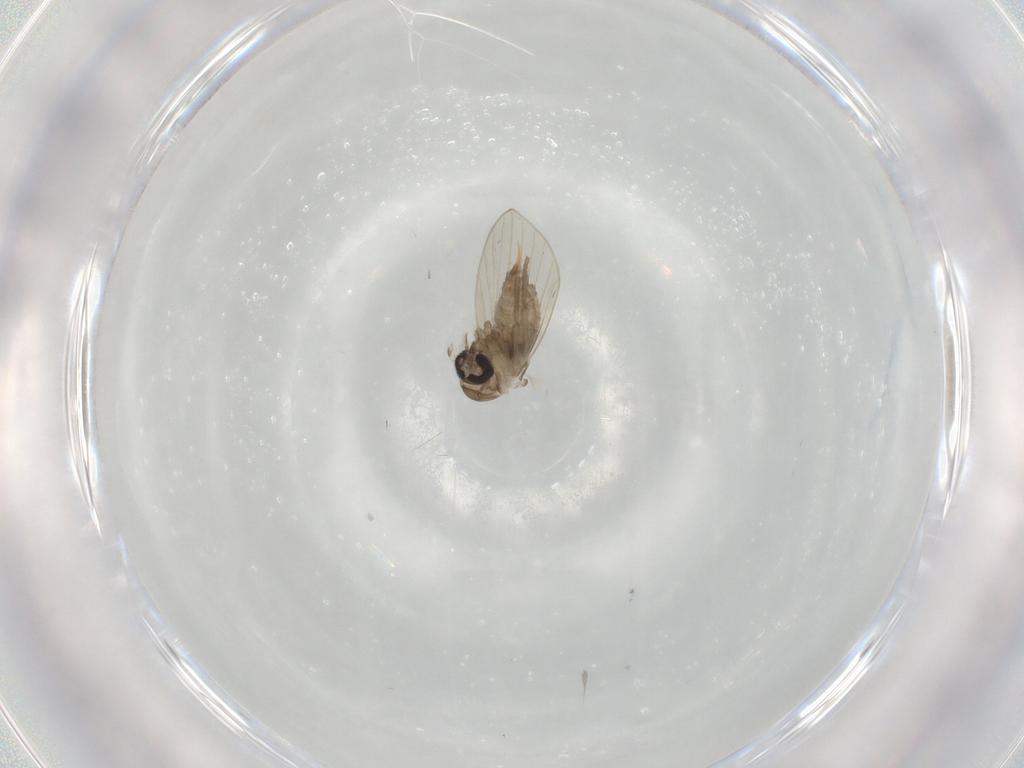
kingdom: Animalia
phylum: Arthropoda
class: Insecta
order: Diptera
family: Psychodidae
